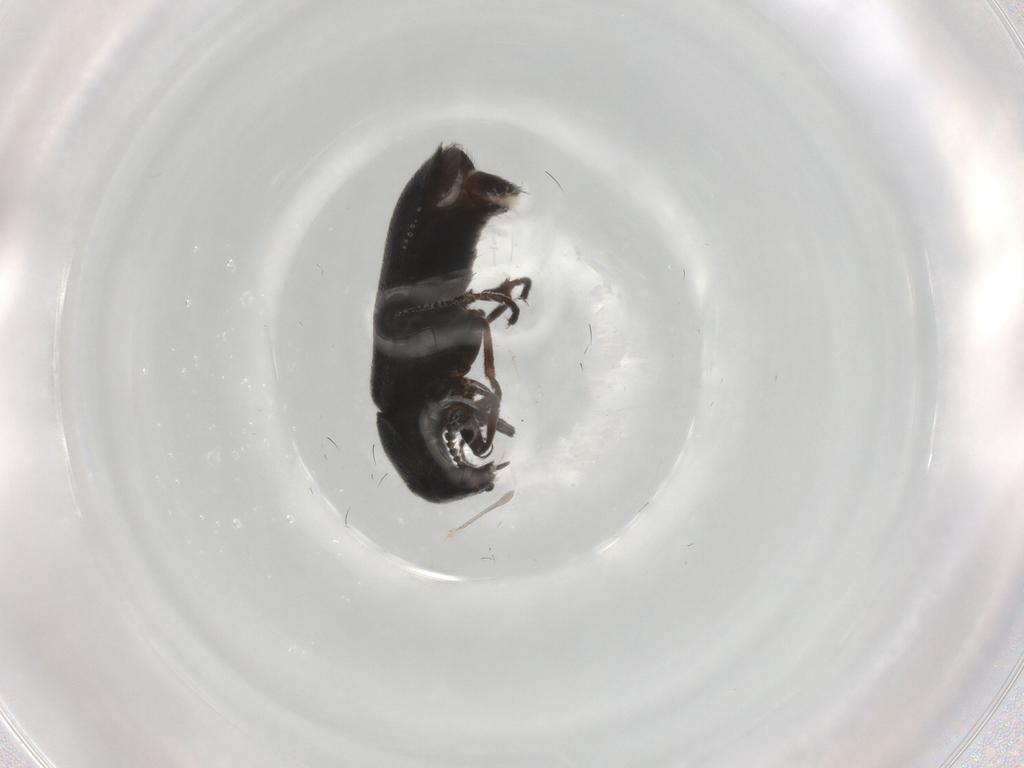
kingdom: Animalia
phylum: Arthropoda
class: Insecta
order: Coleoptera
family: Melyridae
